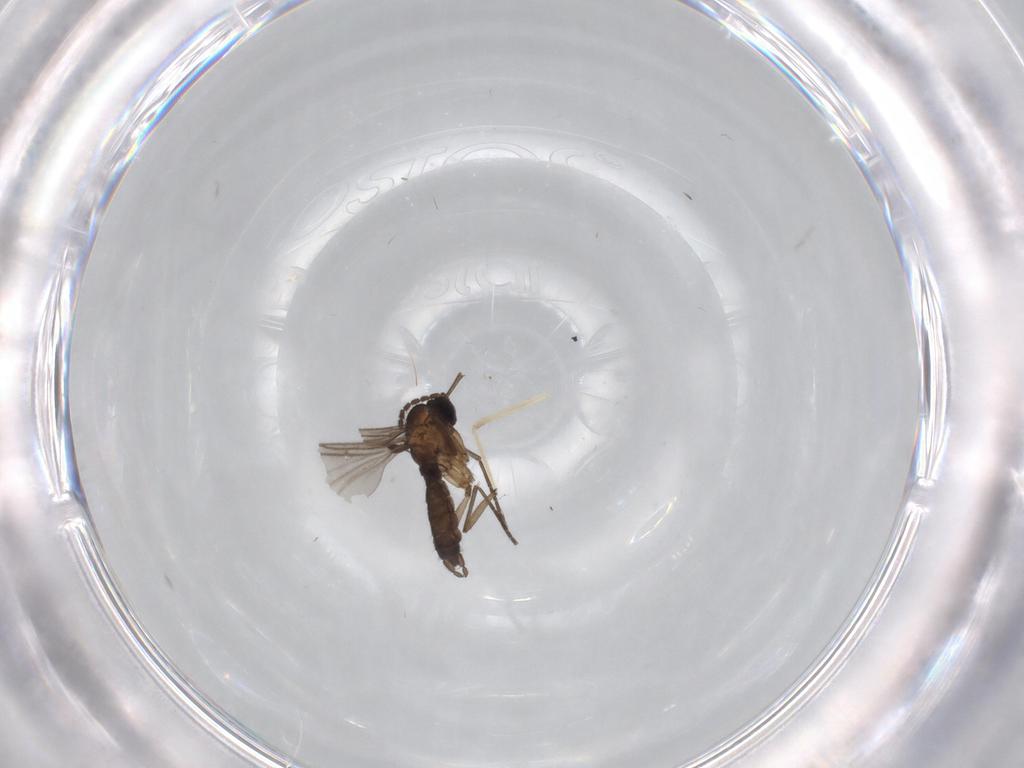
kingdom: Animalia
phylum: Arthropoda
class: Insecta
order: Diptera
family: Sciaridae
